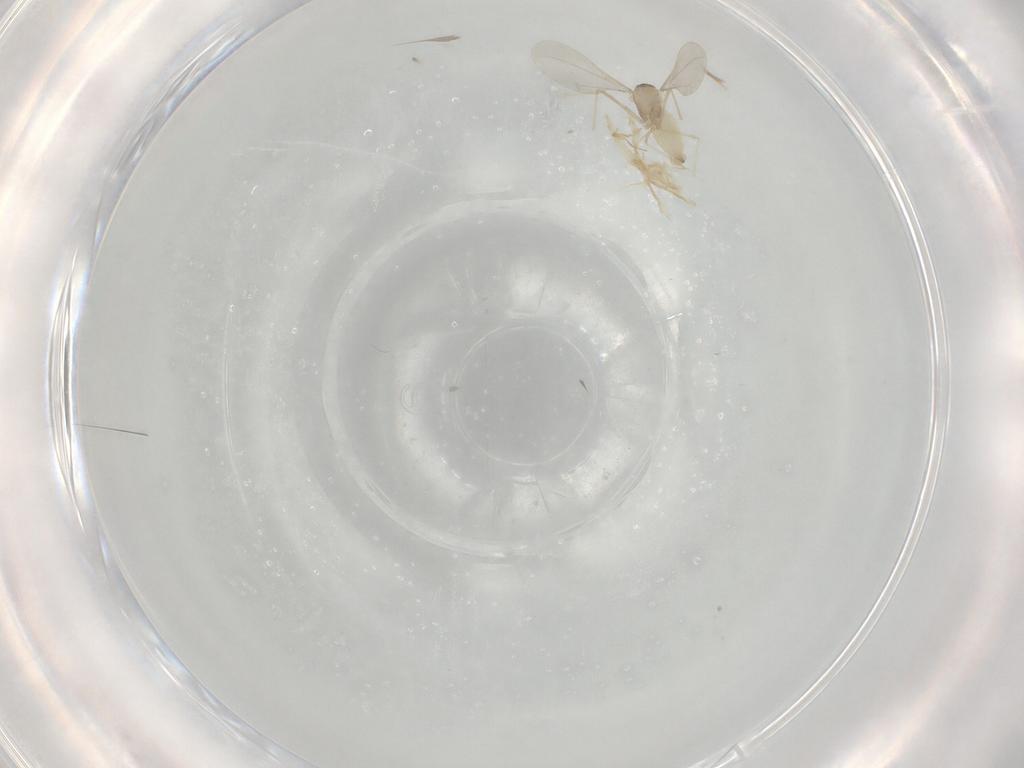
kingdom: Animalia
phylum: Arthropoda
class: Insecta
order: Diptera
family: Cecidomyiidae
